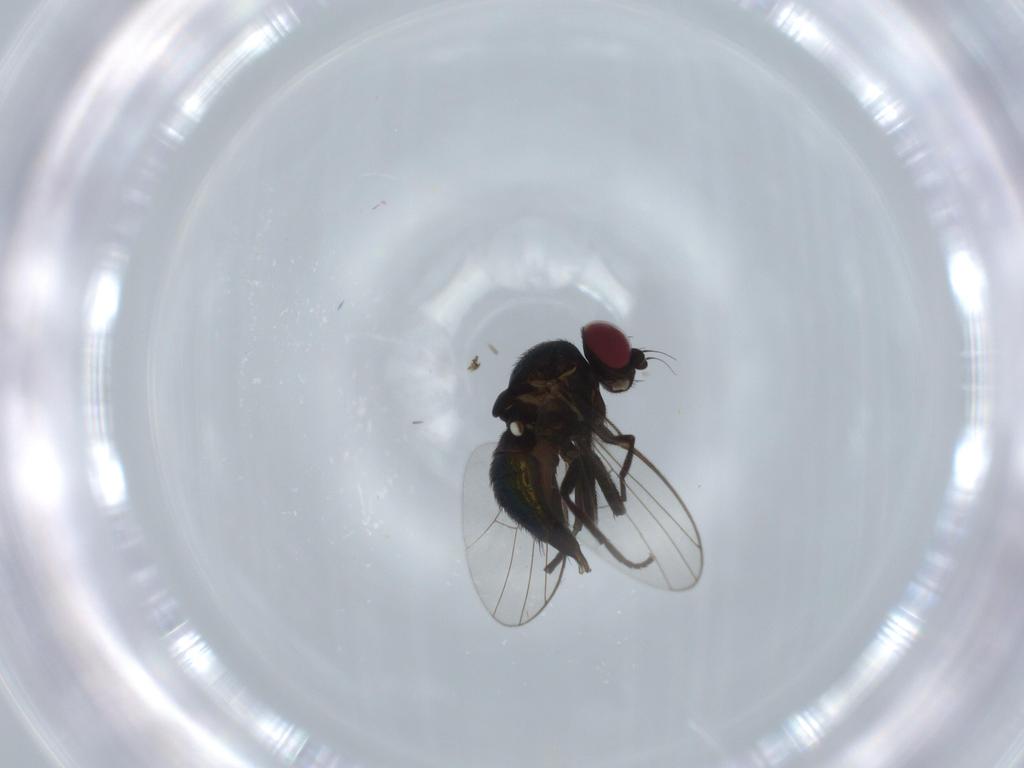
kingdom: Animalia
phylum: Arthropoda
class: Insecta
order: Diptera
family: Agromyzidae
